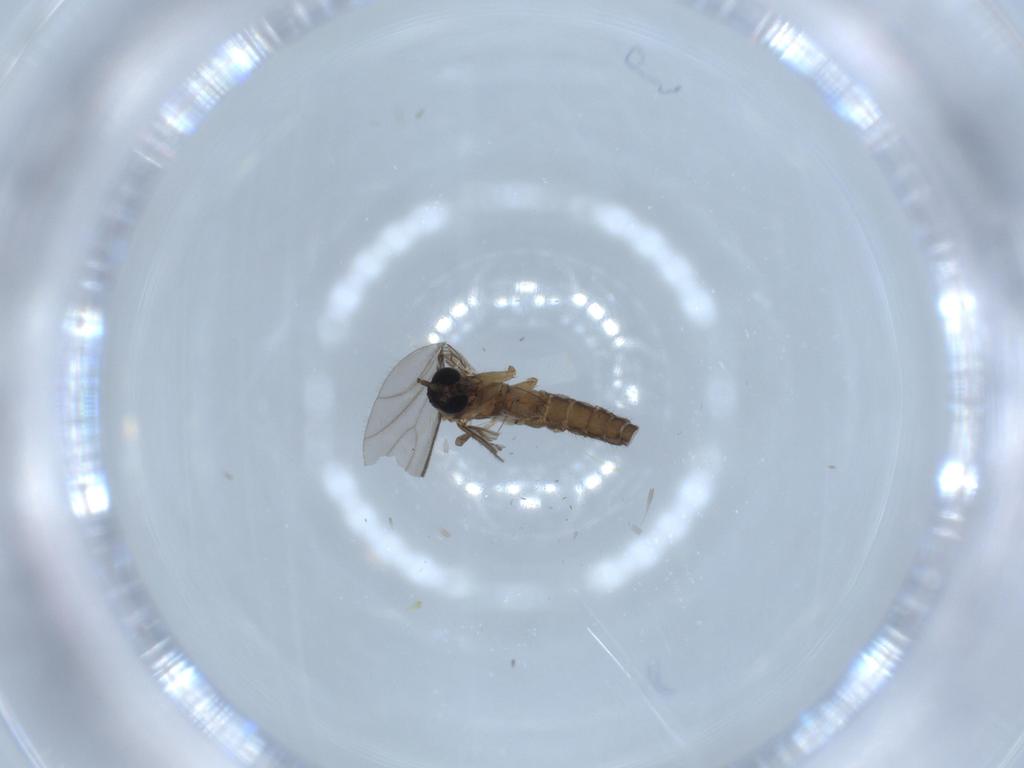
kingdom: Animalia
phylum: Arthropoda
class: Insecta
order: Diptera
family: Sciaridae
